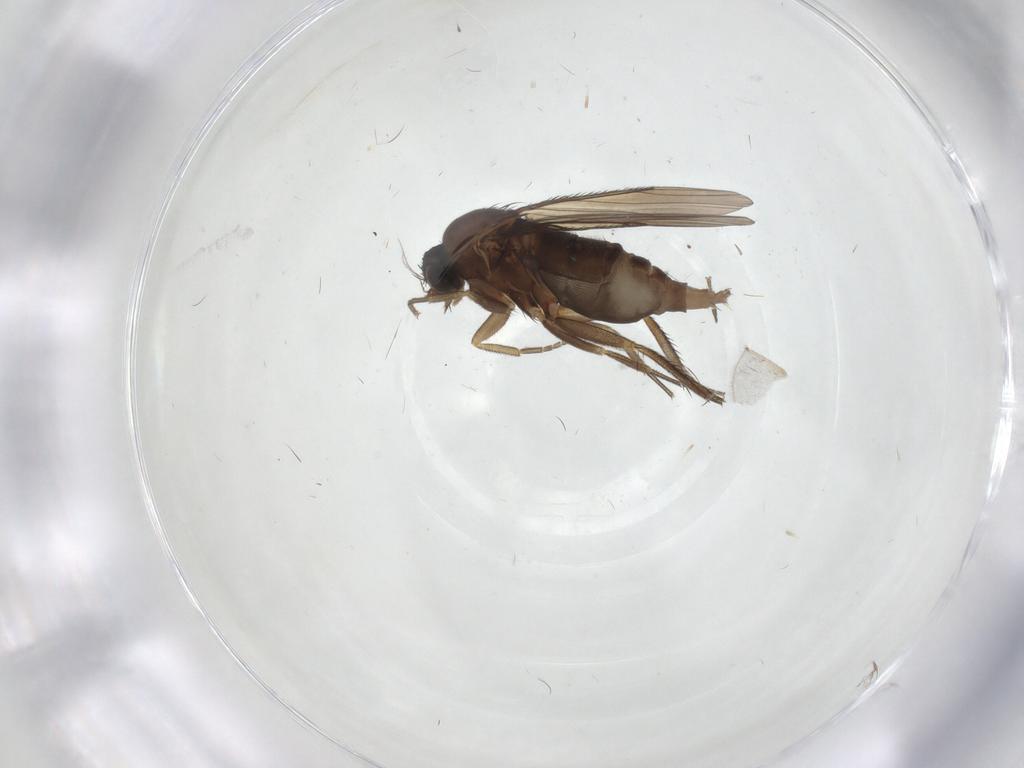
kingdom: Animalia
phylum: Arthropoda
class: Insecta
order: Diptera
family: Phoridae
